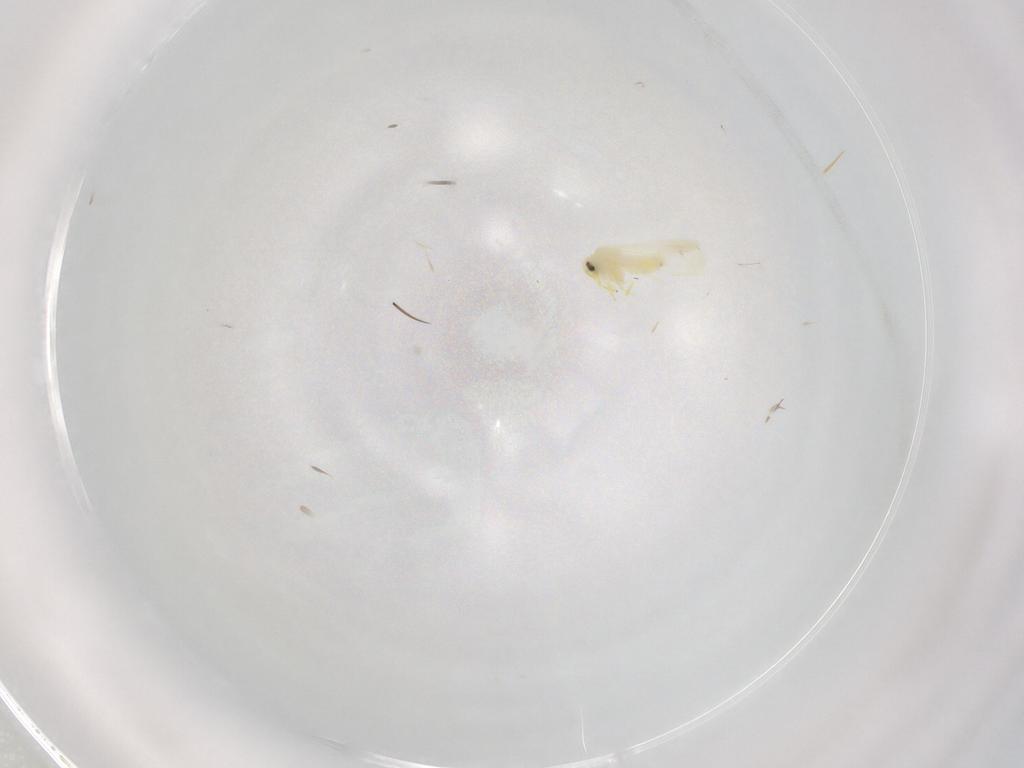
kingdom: Animalia
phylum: Arthropoda
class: Insecta
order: Hemiptera
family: Aleyrodidae
